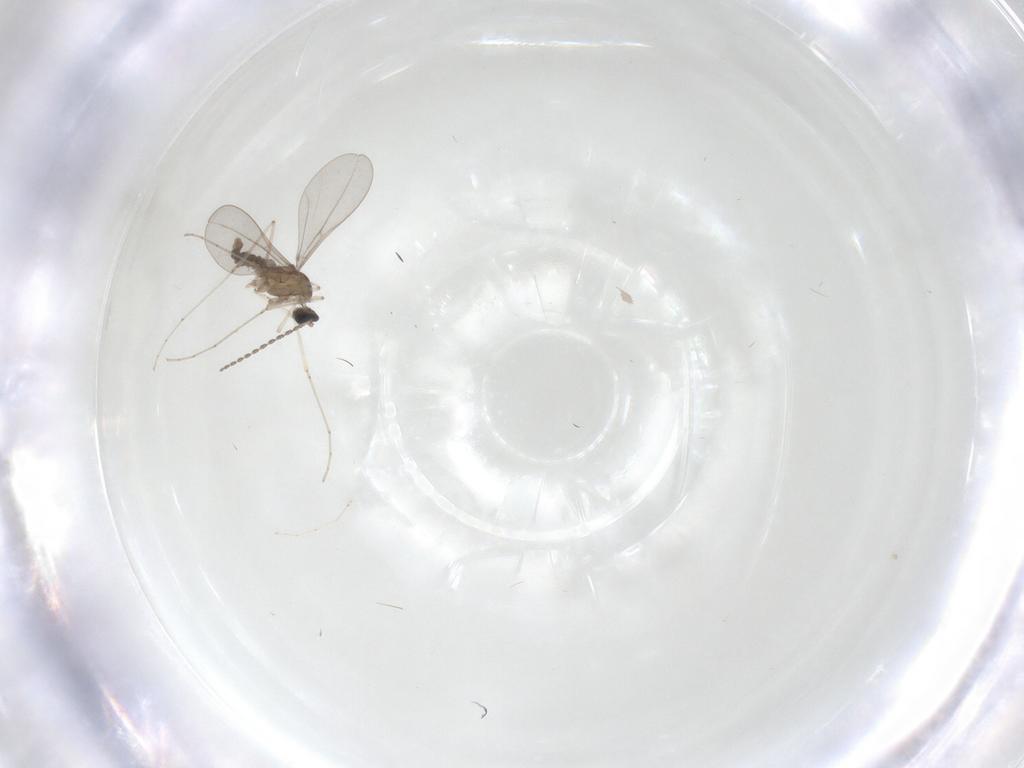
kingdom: Animalia
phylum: Arthropoda
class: Insecta
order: Diptera
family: Cecidomyiidae
